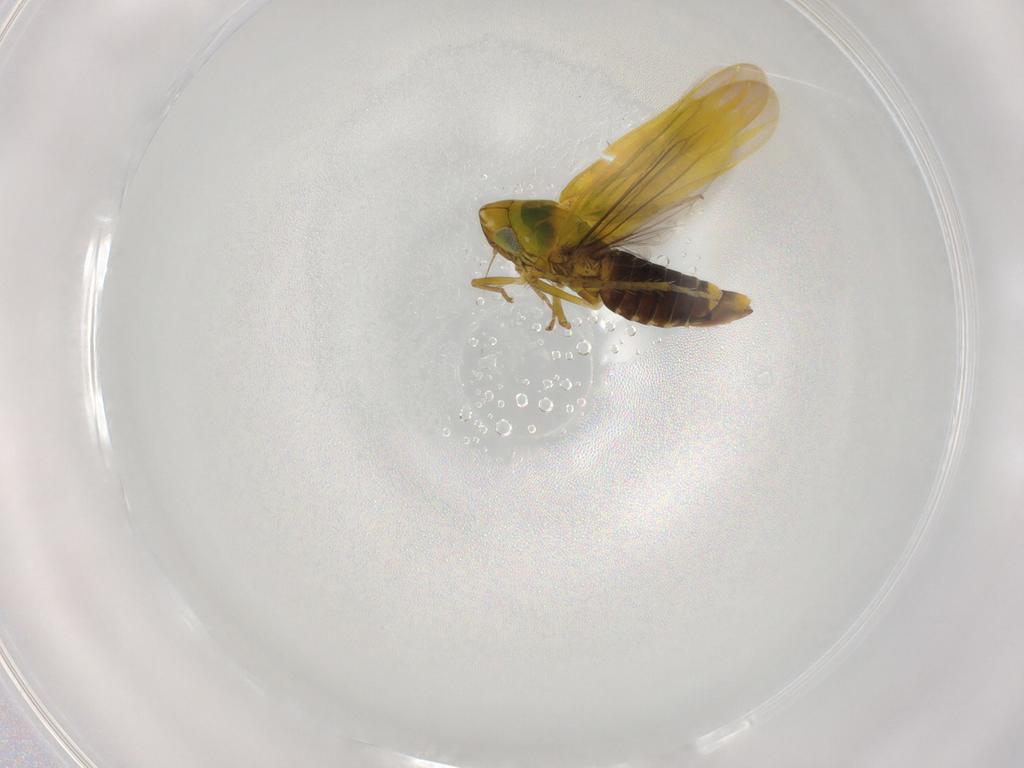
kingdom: Animalia
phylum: Arthropoda
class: Insecta
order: Hemiptera
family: Cicadellidae
